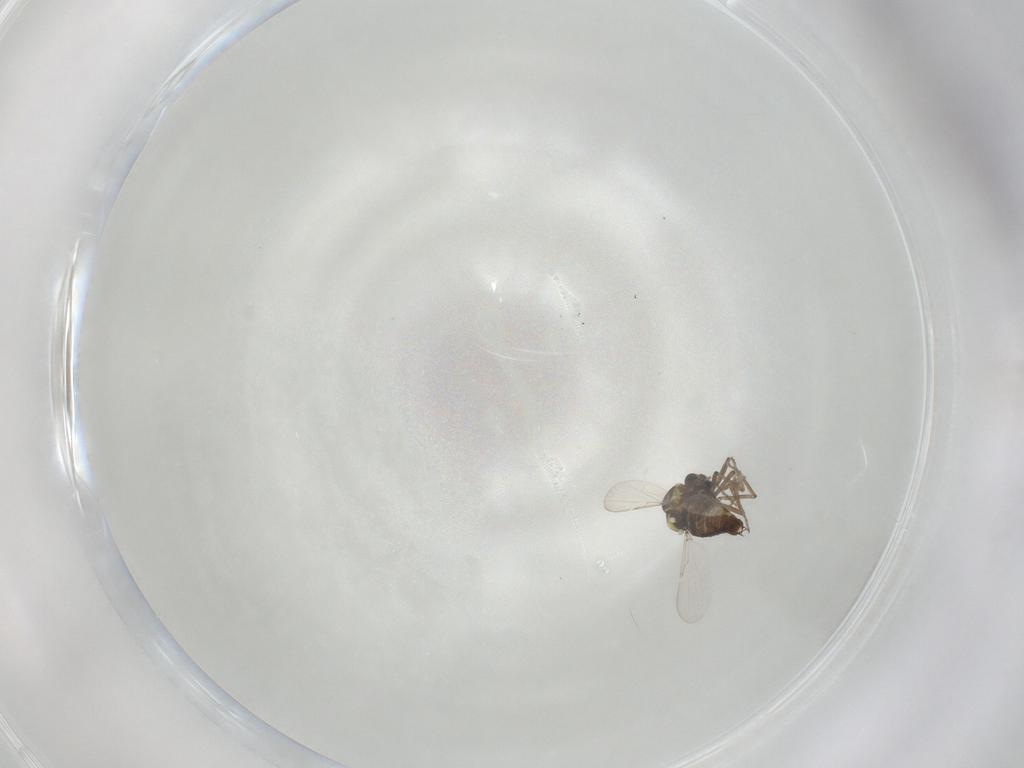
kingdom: Animalia
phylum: Arthropoda
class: Insecta
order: Diptera
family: Ceratopogonidae
